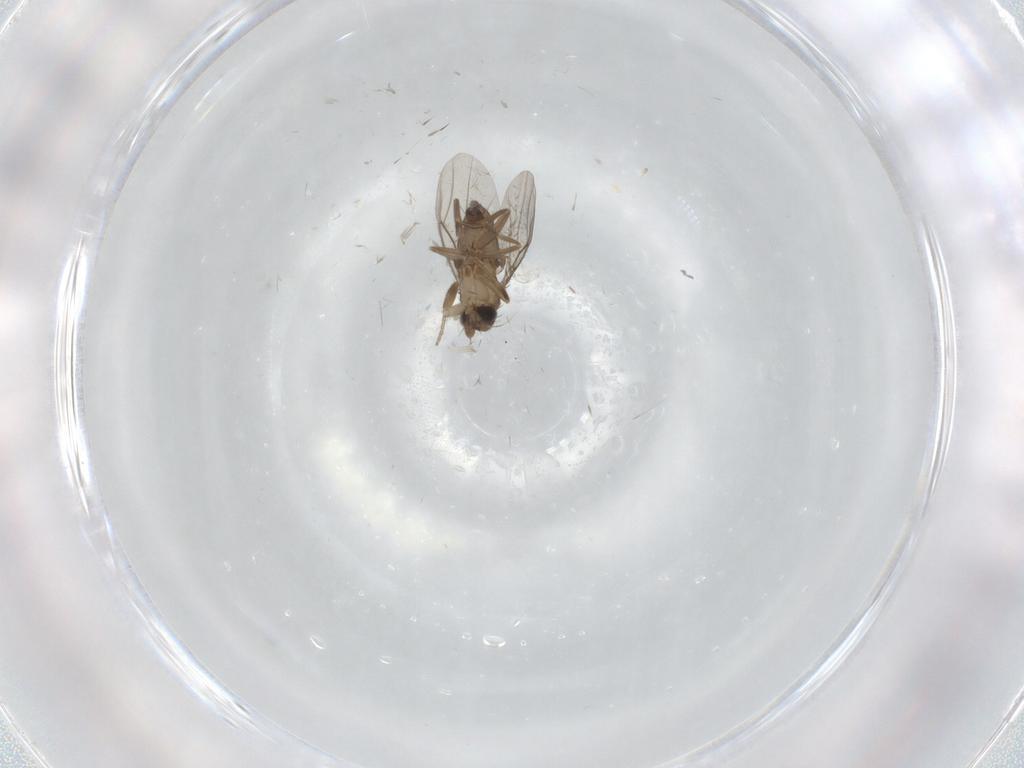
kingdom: Animalia
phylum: Arthropoda
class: Insecta
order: Diptera
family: Phoridae
